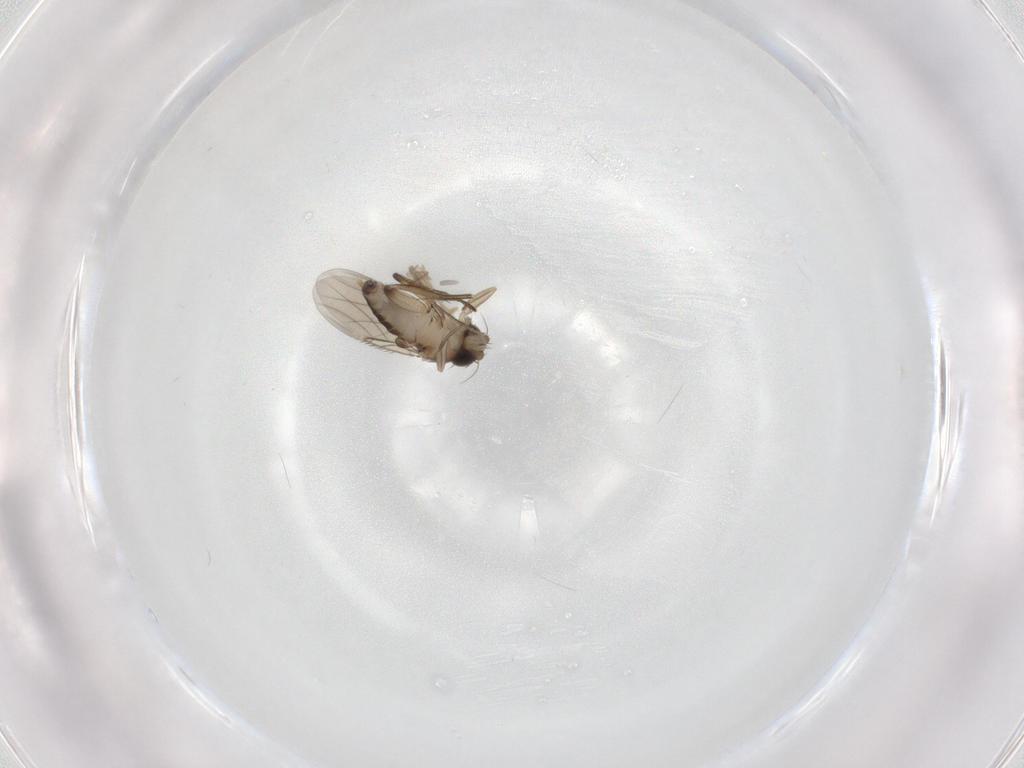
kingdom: Animalia
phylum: Arthropoda
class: Insecta
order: Diptera
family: Phoridae
